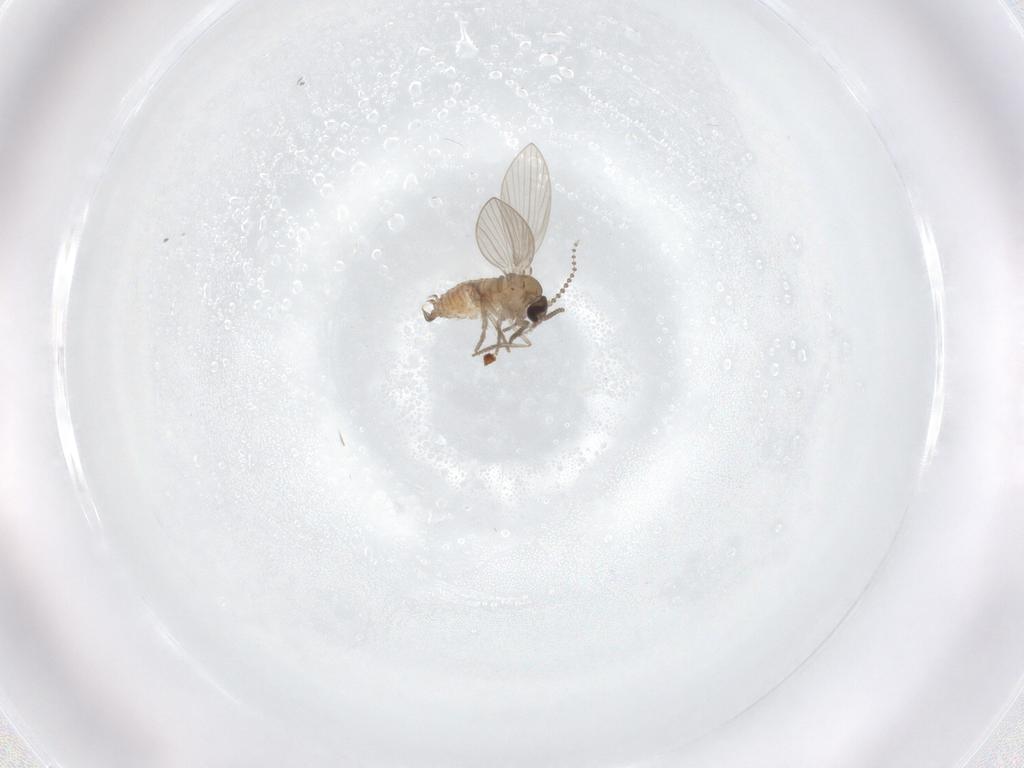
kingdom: Animalia
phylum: Arthropoda
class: Insecta
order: Diptera
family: Psychodidae
